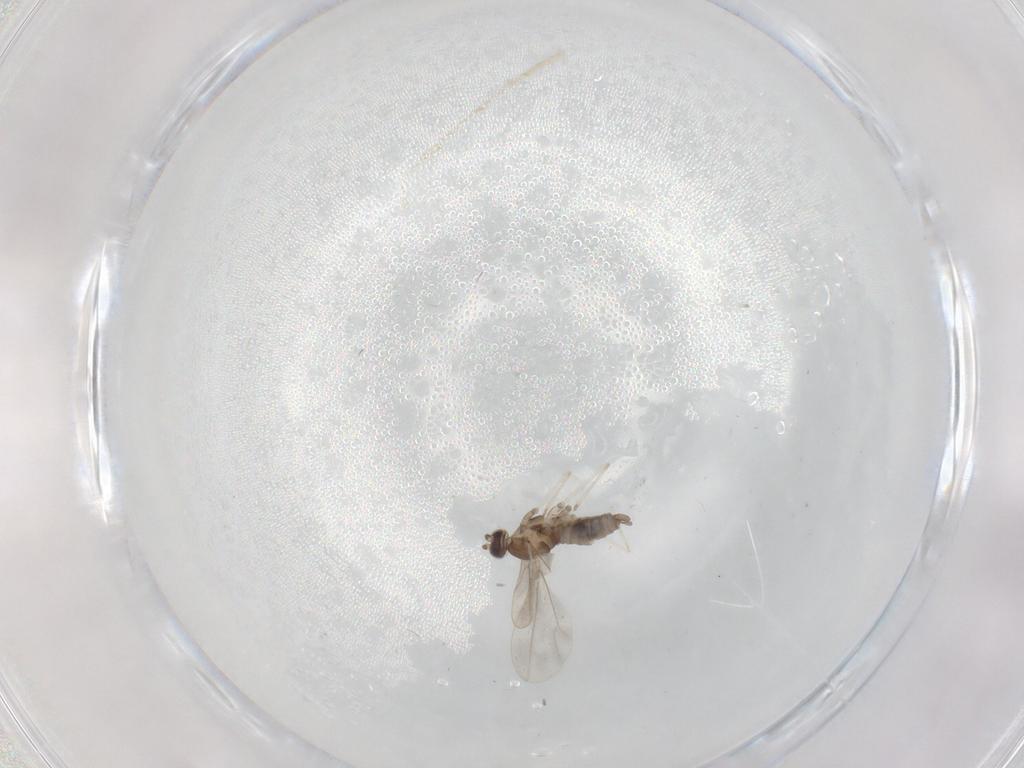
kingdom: Animalia
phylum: Arthropoda
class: Insecta
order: Diptera
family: Cecidomyiidae
